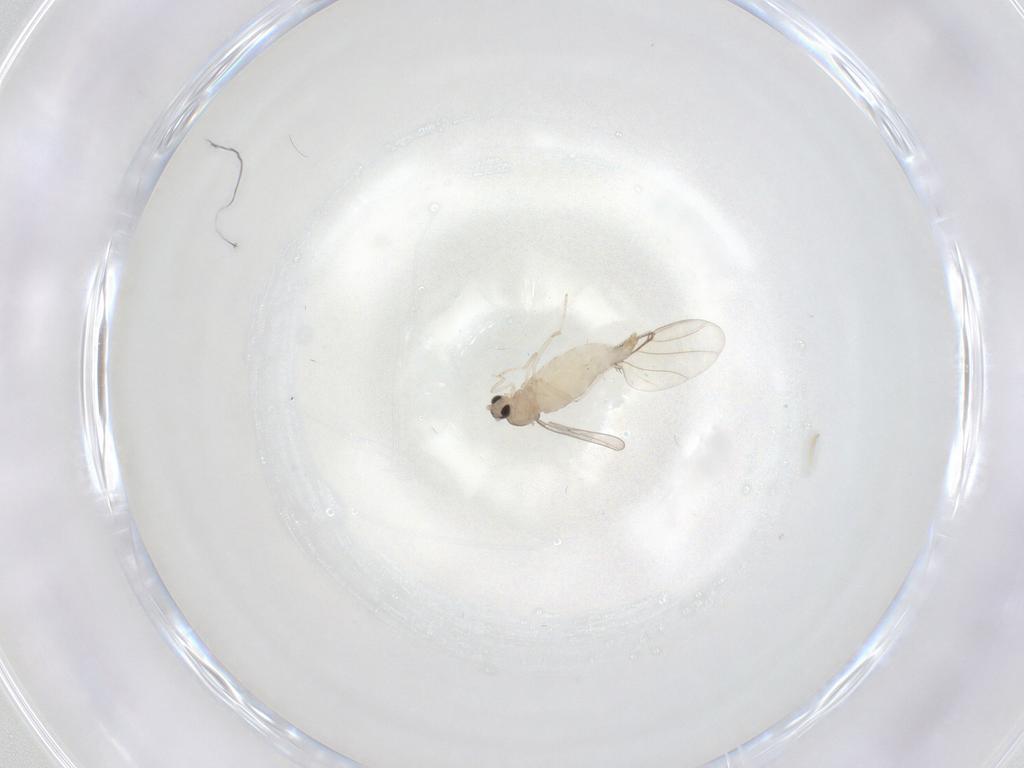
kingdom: Animalia
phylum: Arthropoda
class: Insecta
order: Diptera
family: Cecidomyiidae
